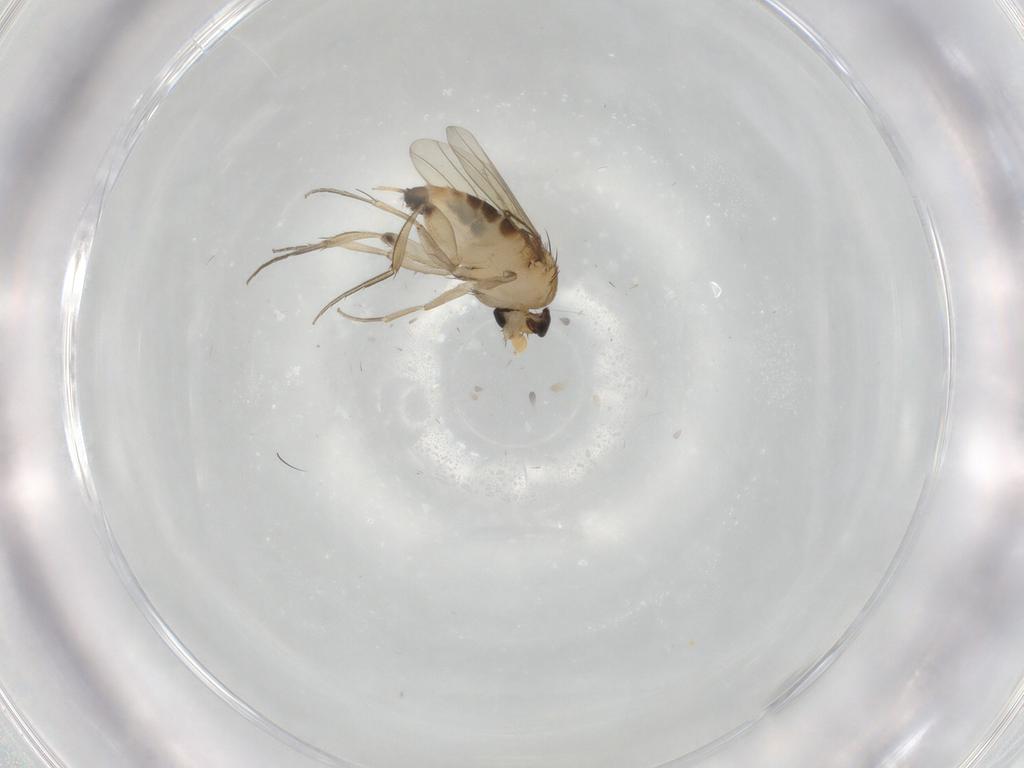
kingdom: Animalia
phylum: Arthropoda
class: Insecta
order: Diptera
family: Phoridae
